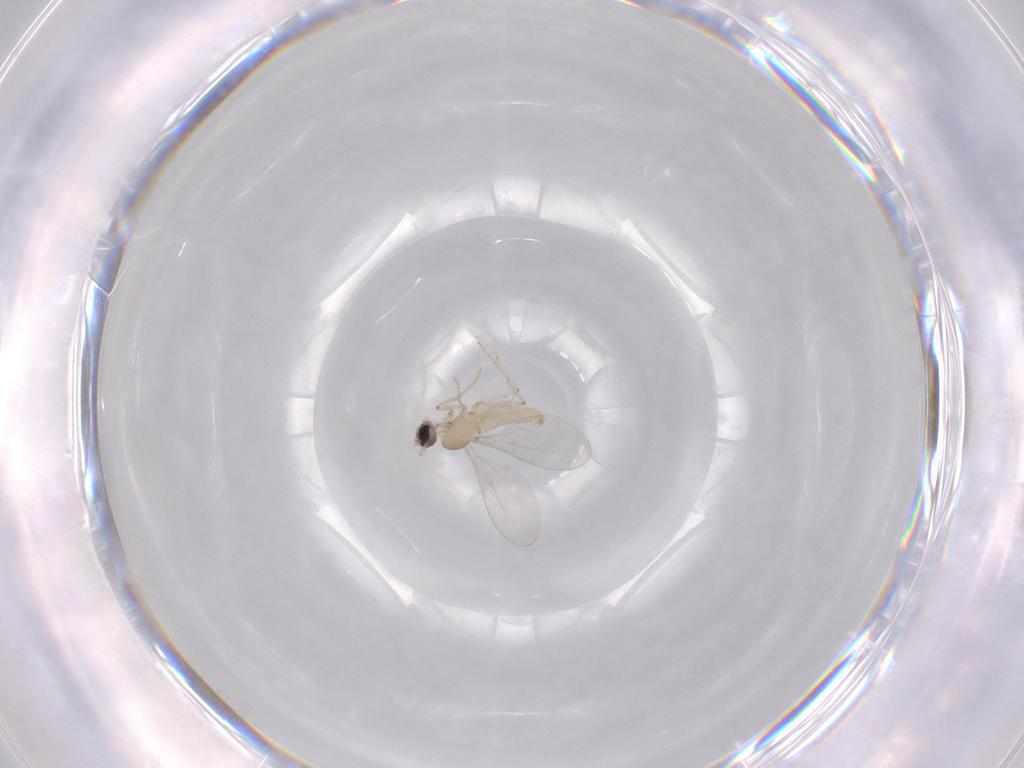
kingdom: Animalia
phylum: Arthropoda
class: Insecta
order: Diptera
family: Cecidomyiidae
